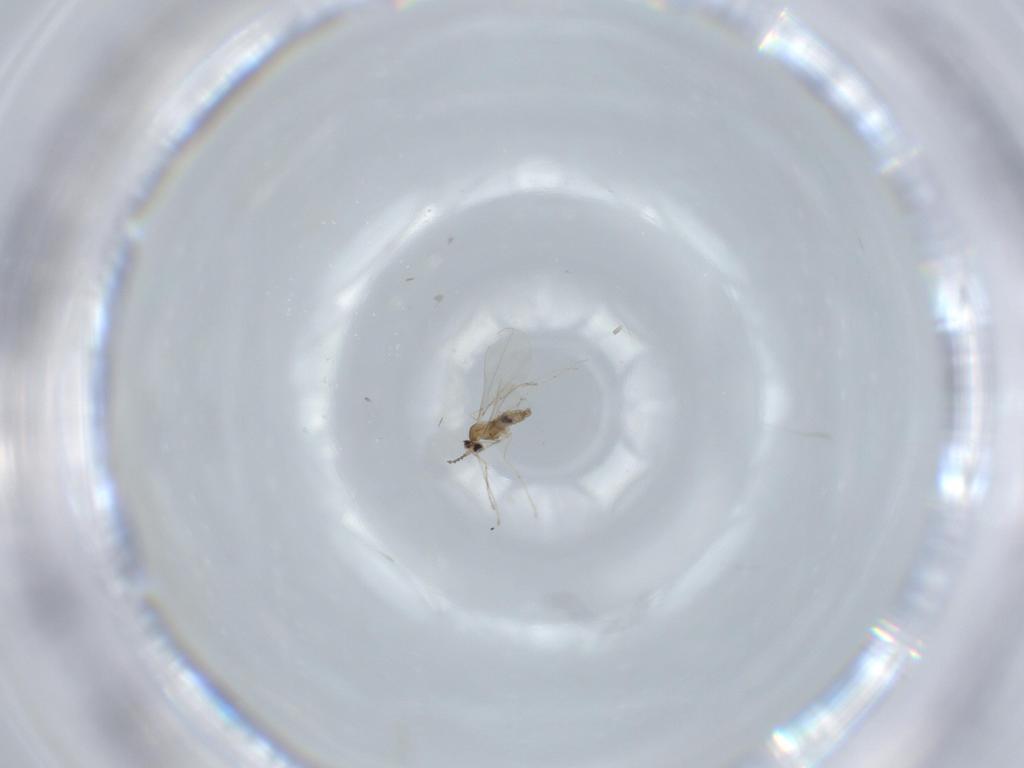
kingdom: Animalia
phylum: Arthropoda
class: Insecta
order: Diptera
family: Cecidomyiidae
